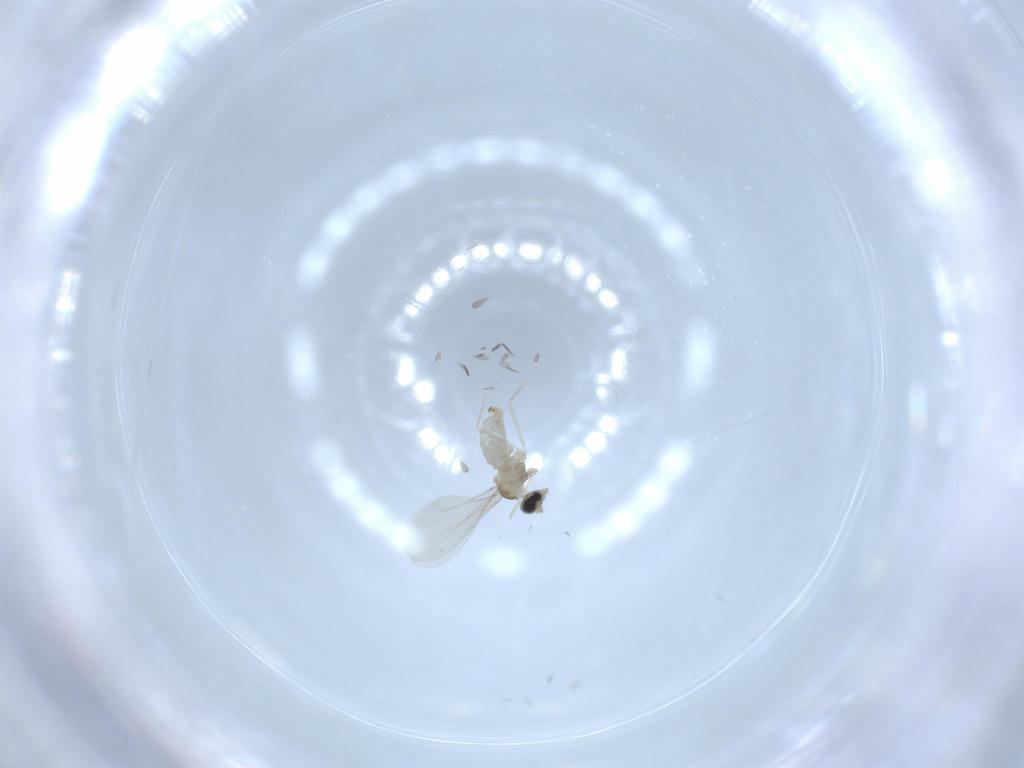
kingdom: Animalia
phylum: Arthropoda
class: Insecta
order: Diptera
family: Cecidomyiidae
